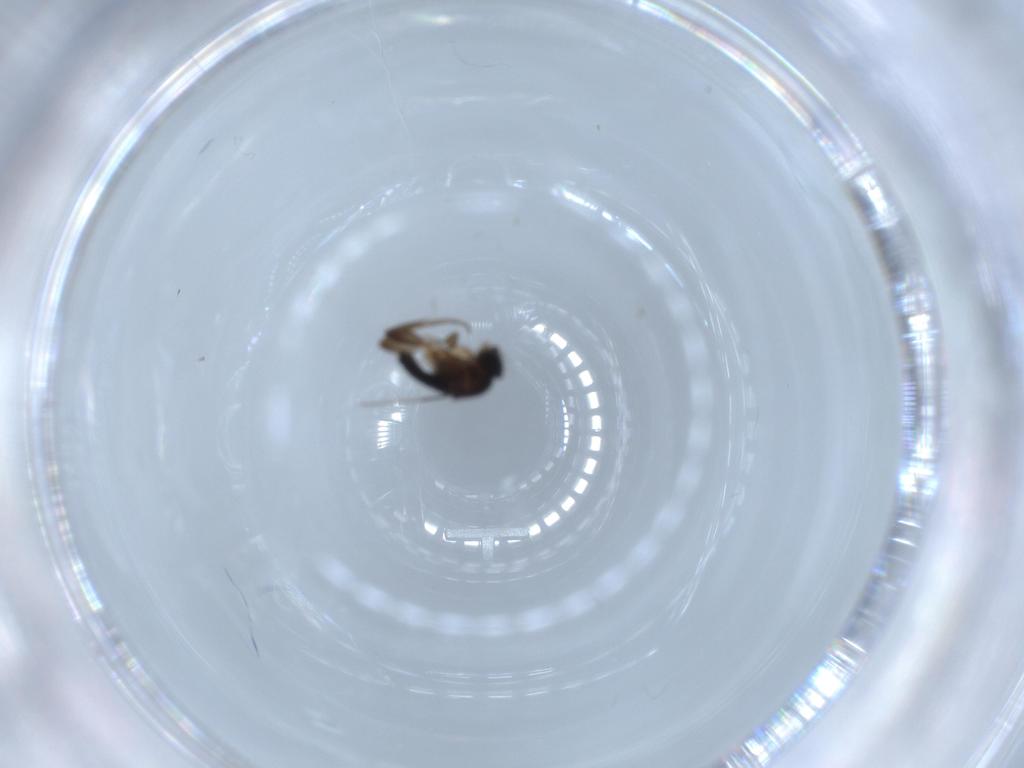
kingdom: Animalia
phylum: Arthropoda
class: Insecta
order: Diptera
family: Phoridae
